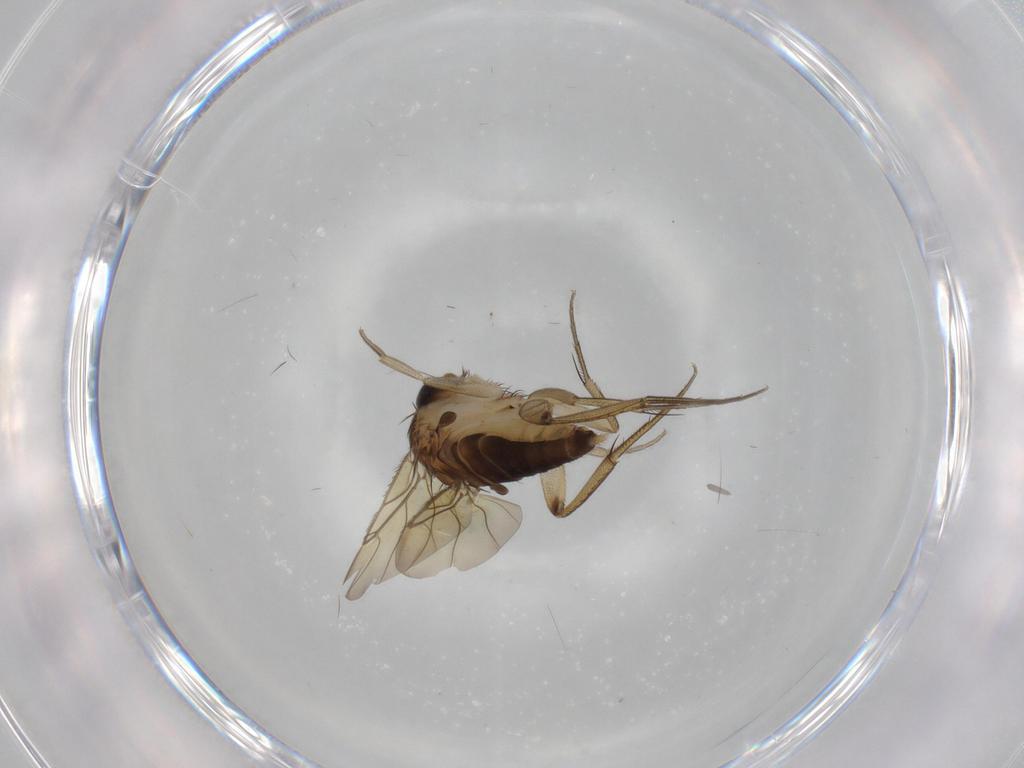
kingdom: Animalia
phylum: Arthropoda
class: Insecta
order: Diptera
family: Phoridae
